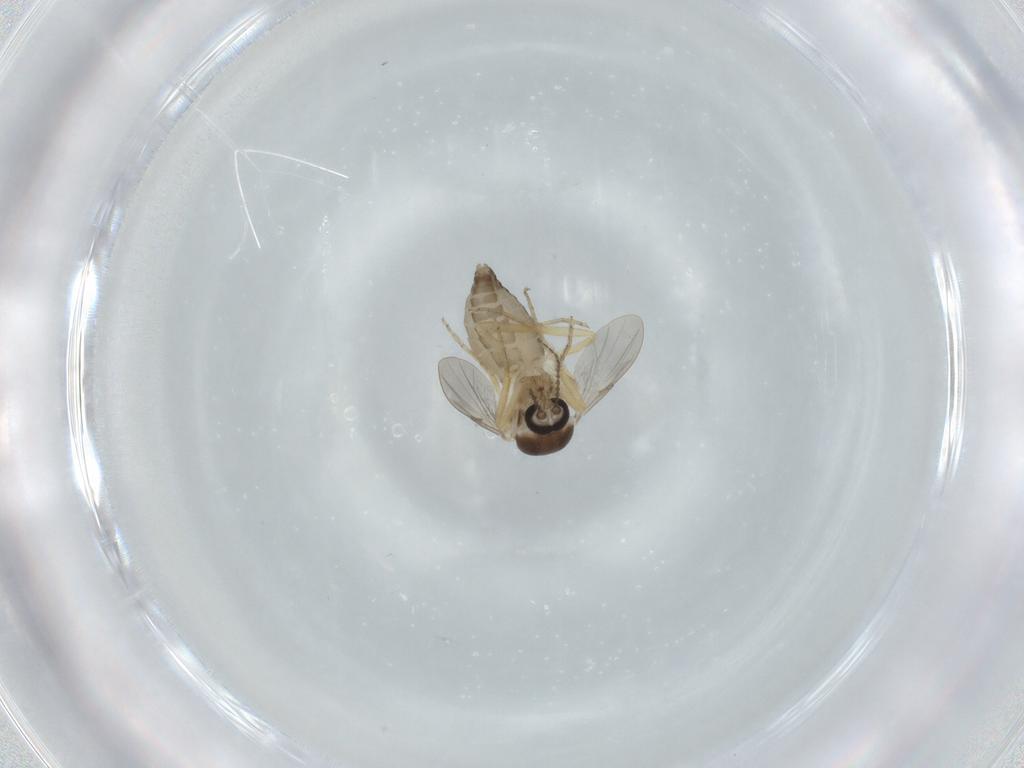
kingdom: Animalia
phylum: Arthropoda
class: Insecta
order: Diptera
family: Ceratopogonidae
